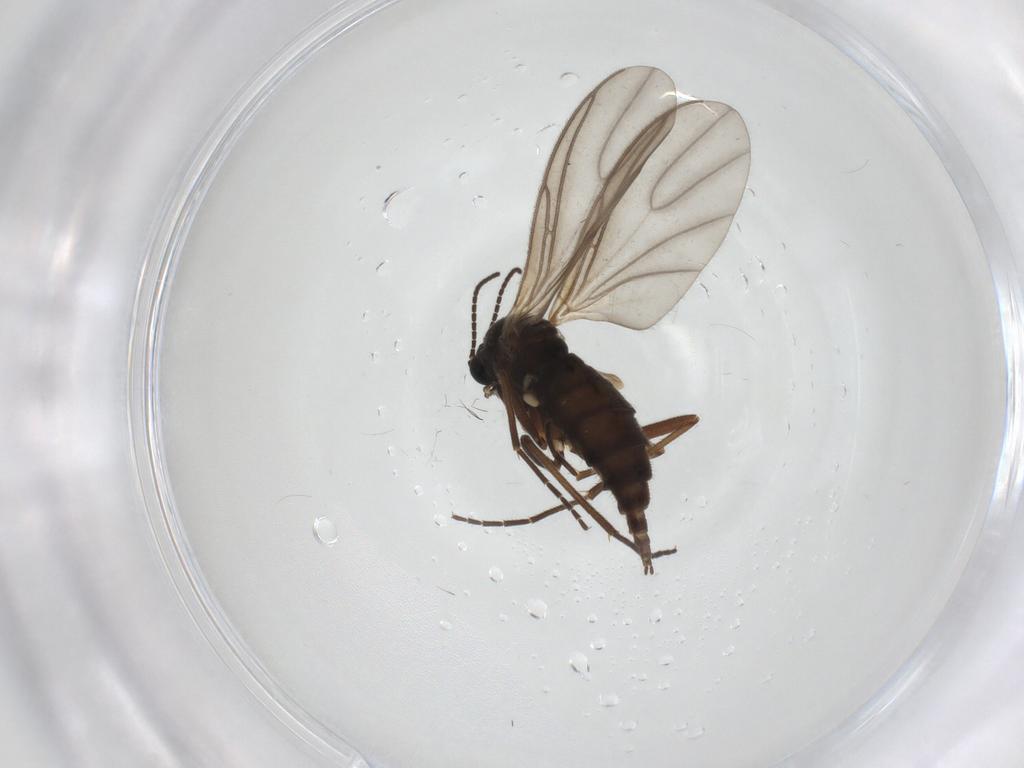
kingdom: Animalia
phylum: Arthropoda
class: Insecta
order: Diptera
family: Sciaridae
